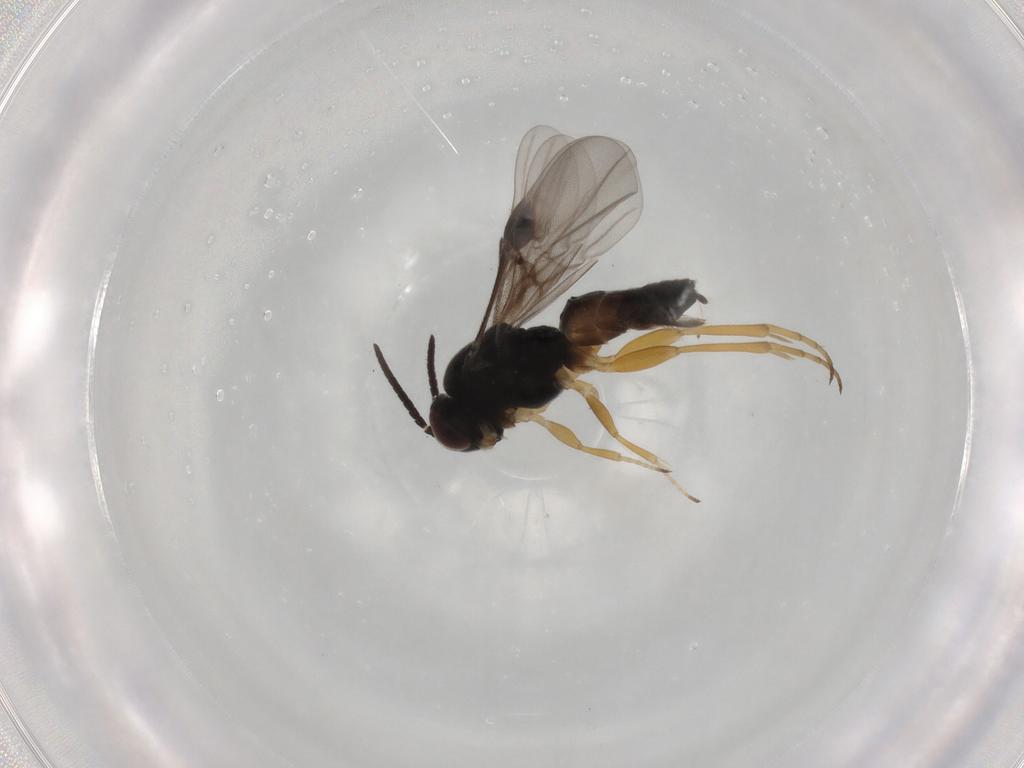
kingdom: Animalia
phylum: Arthropoda
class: Insecta
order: Hymenoptera
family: Braconidae
